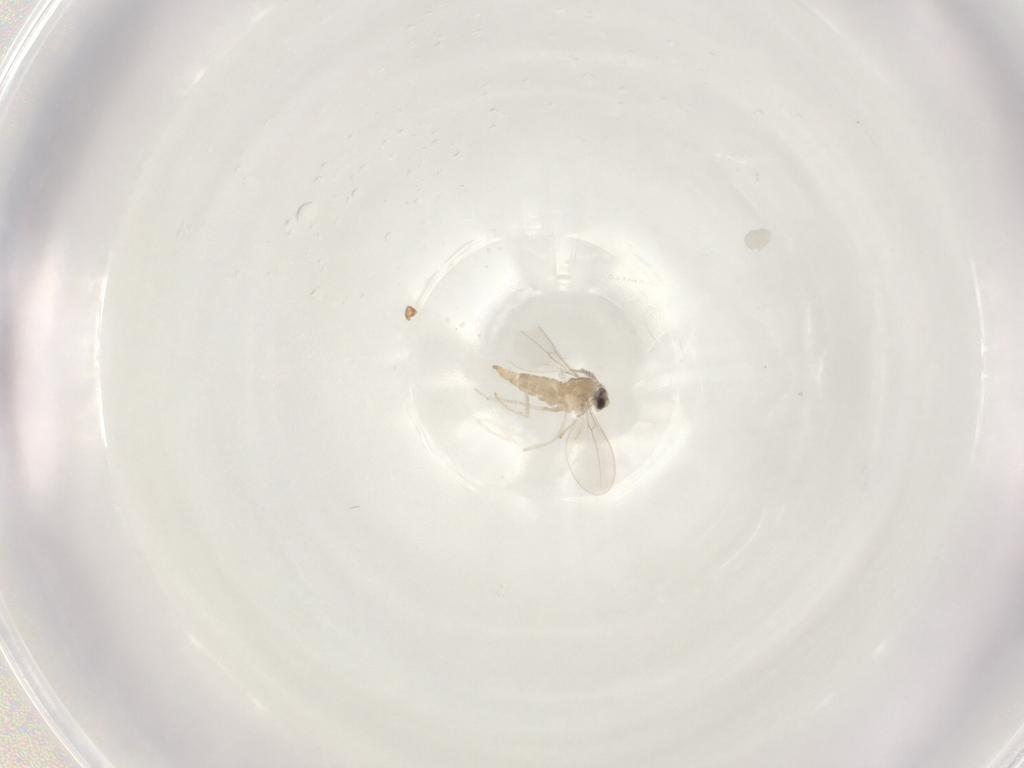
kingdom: Animalia
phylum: Arthropoda
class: Insecta
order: Diptera
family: Cecidomyiidae
